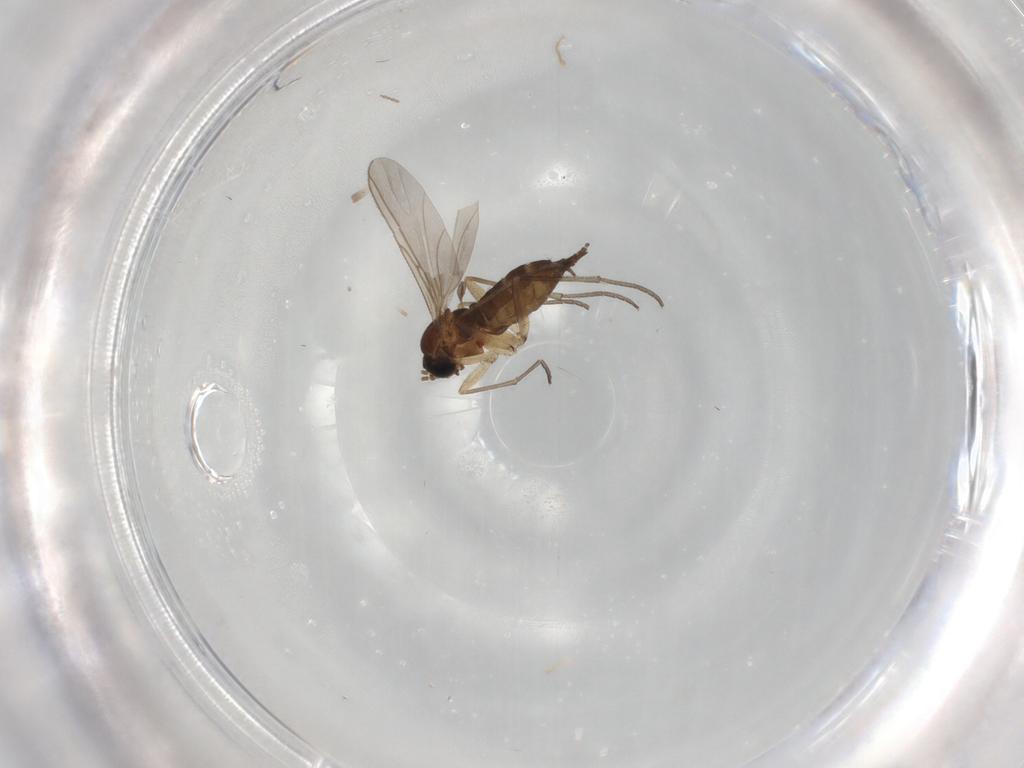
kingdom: Animalia
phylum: Arthropoda
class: Insecta
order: Diptera
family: Sciaridae
